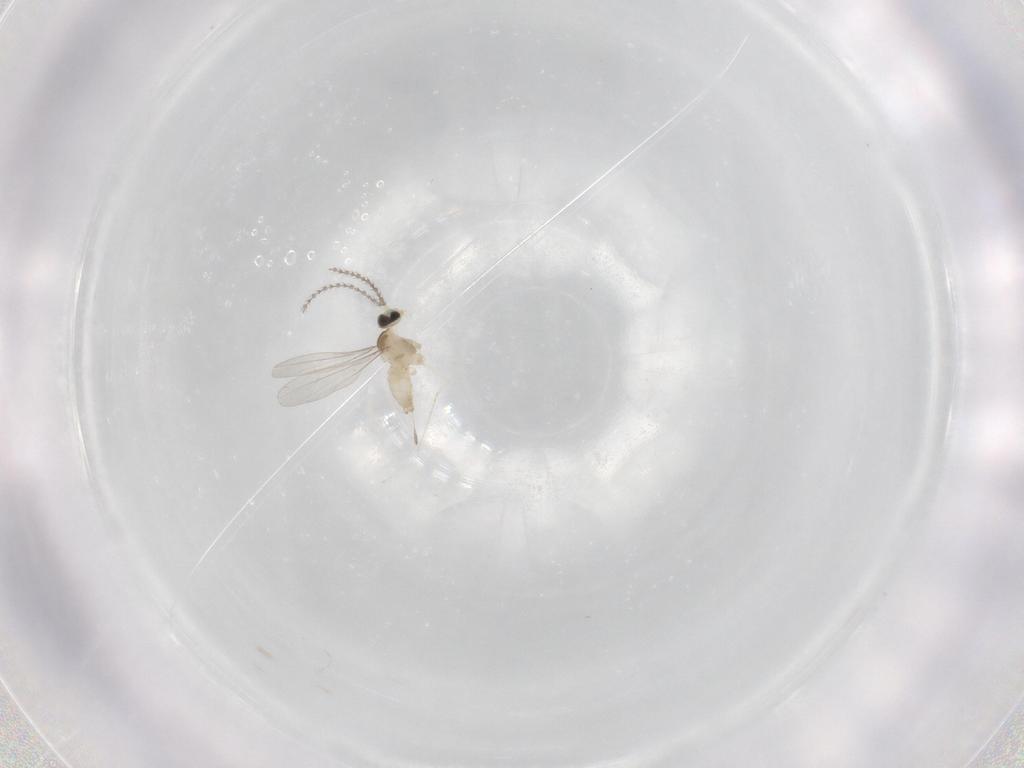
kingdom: Animalia
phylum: Arthropoda
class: Insecta
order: Diptera
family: Cecidomyiidae
